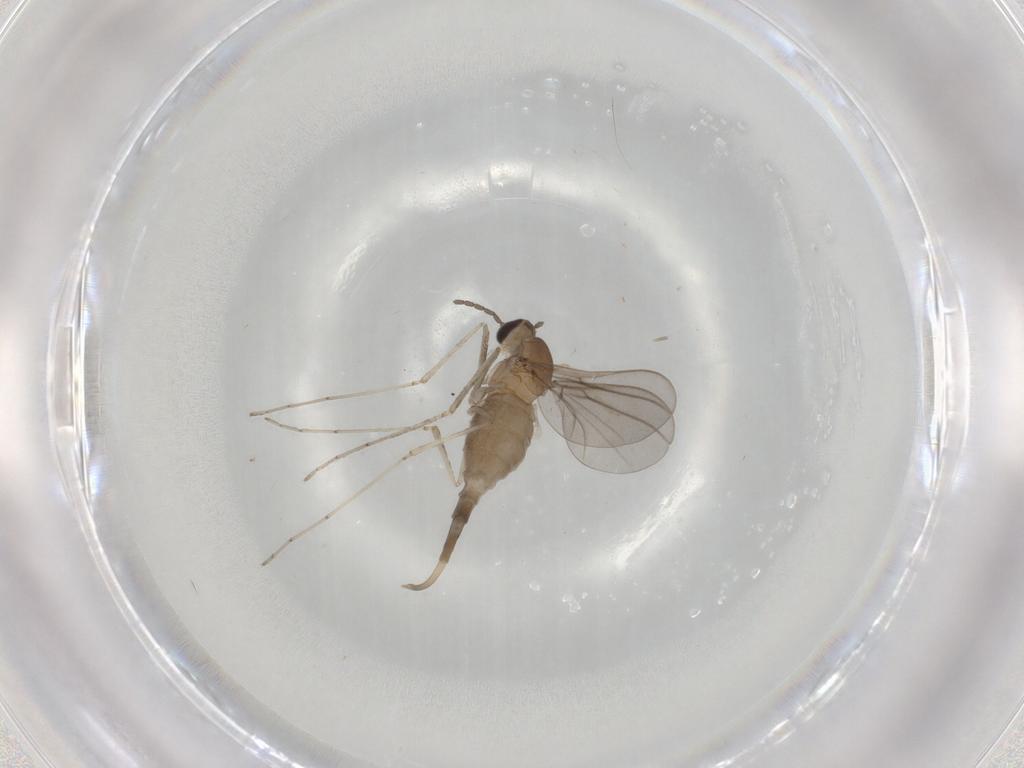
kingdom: Animalia
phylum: Arthropoda
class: Insecta
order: Diptera
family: Cecidomyiidae
